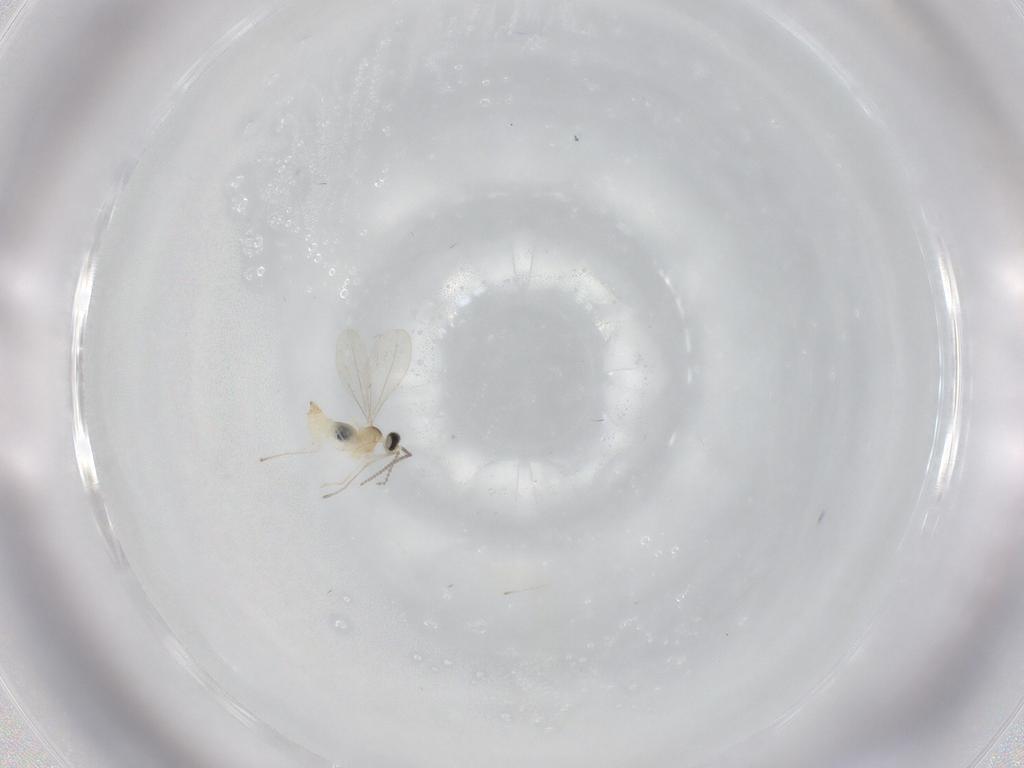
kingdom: Animalia
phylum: Arthropoda
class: Insecta
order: Diptera
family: Cecidomyiidae
